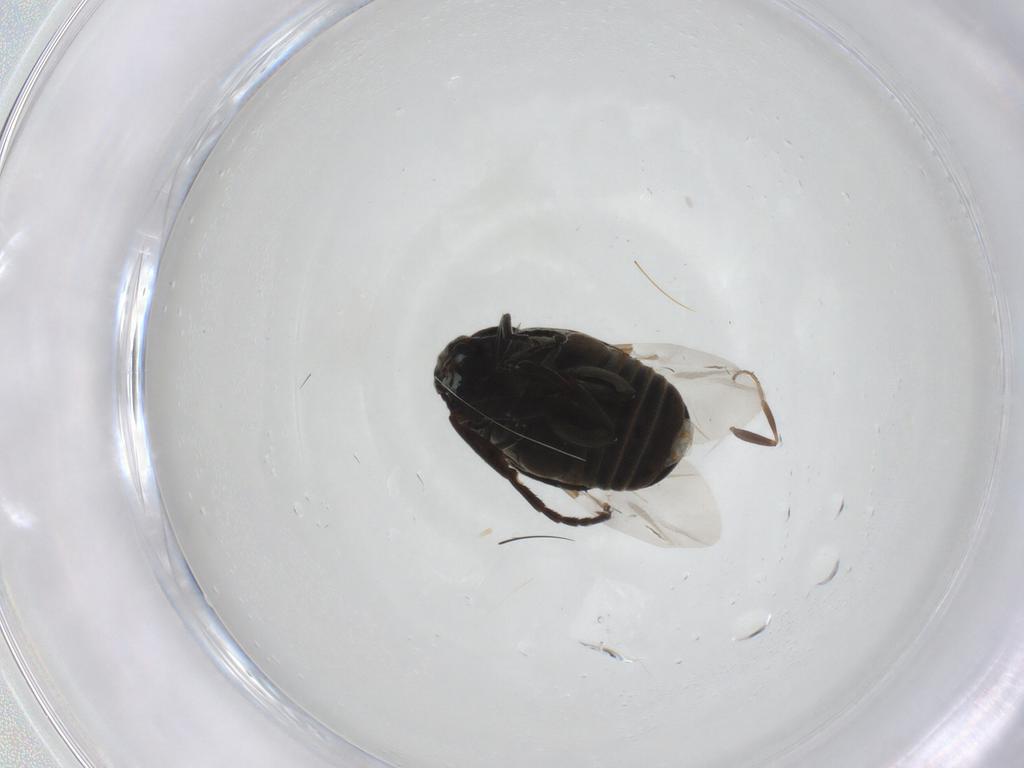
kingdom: Animalia
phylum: Arthropoda
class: Insecta
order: Coleoptera
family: Chrysomelidae
